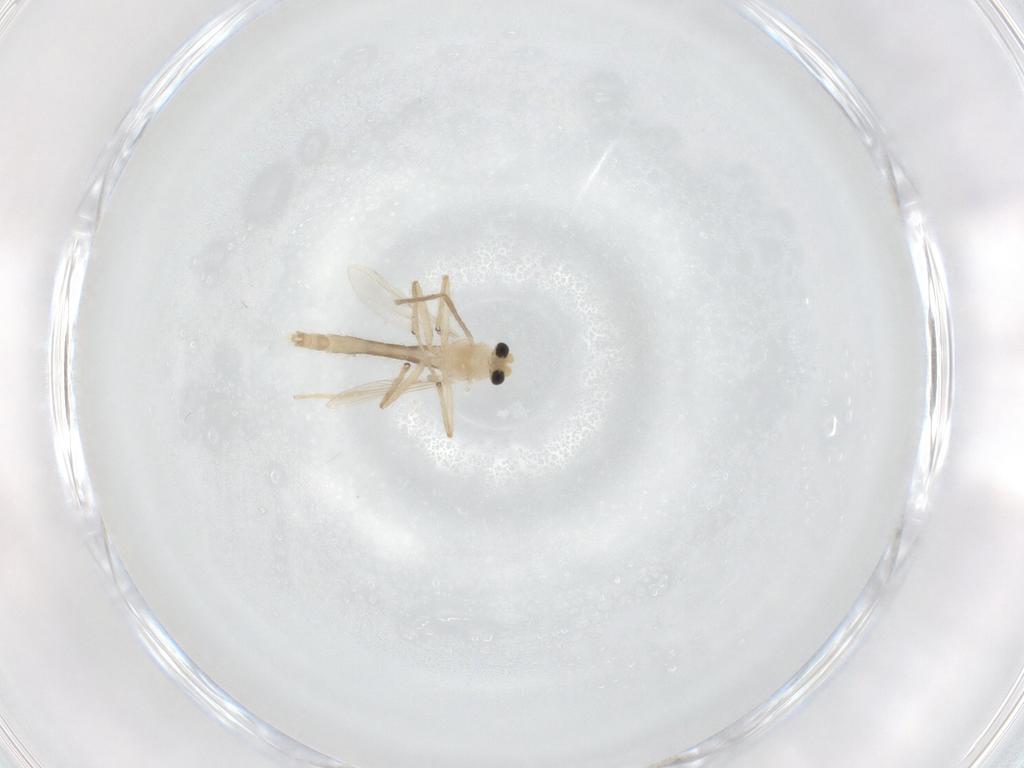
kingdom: Animalia
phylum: Arthropoda
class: Insecta
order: Diptera
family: Chironomidae
